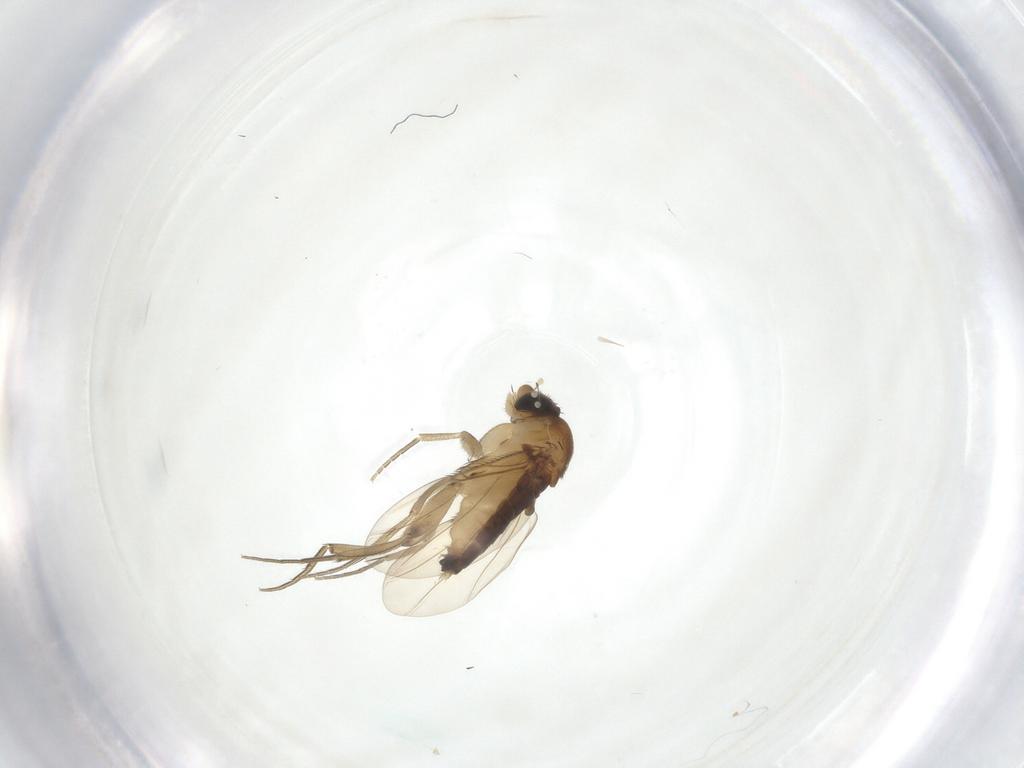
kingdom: Animalia
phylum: Arthropoda
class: Insecta
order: Diptera
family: Phoridae
